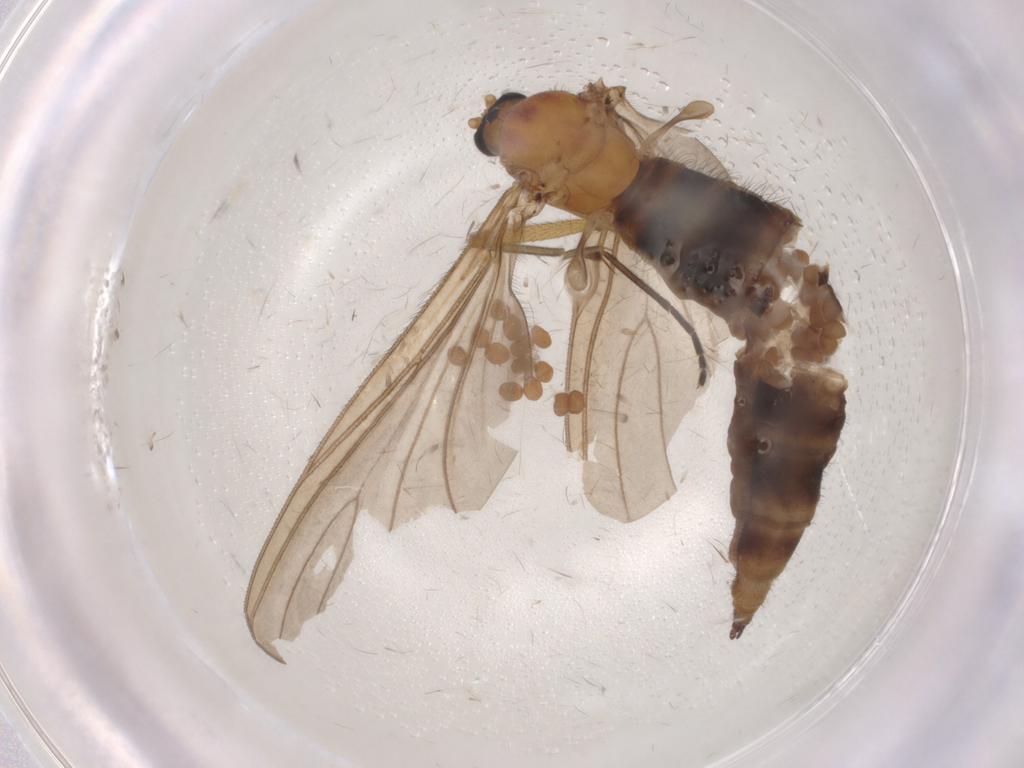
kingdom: Animalia
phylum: Arthropoda
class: Insecta
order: Diptera
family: Sciaridae
